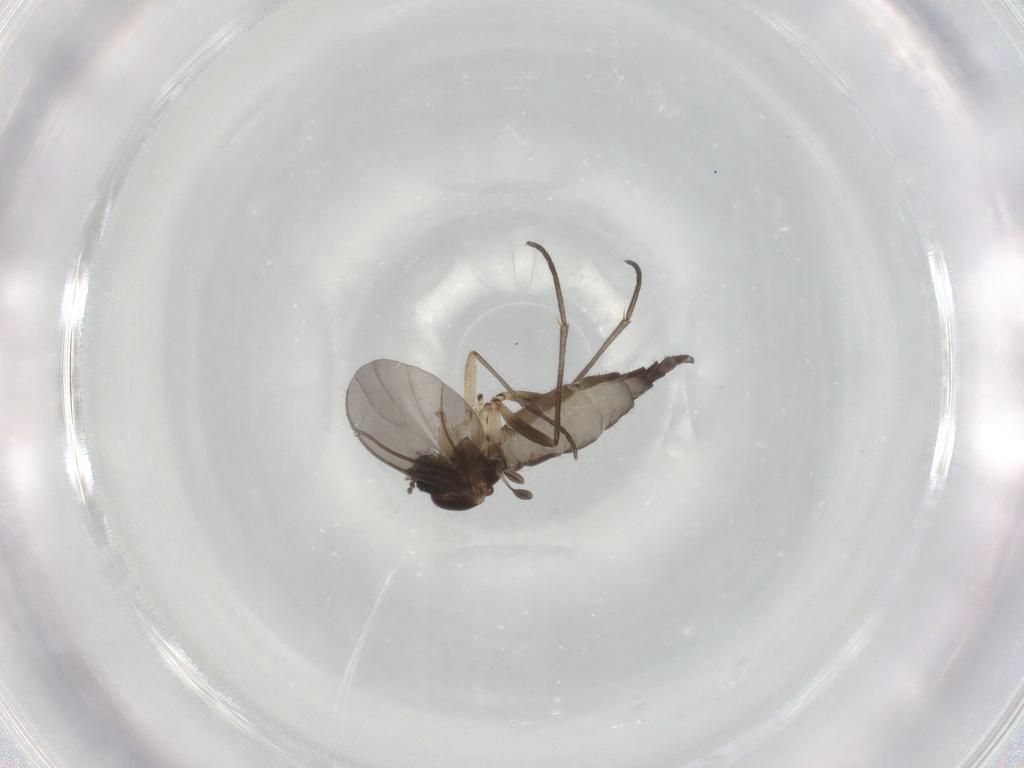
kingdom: Animalia
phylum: Arthropoda
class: Insecta
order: Diptera
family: Sciaridae
